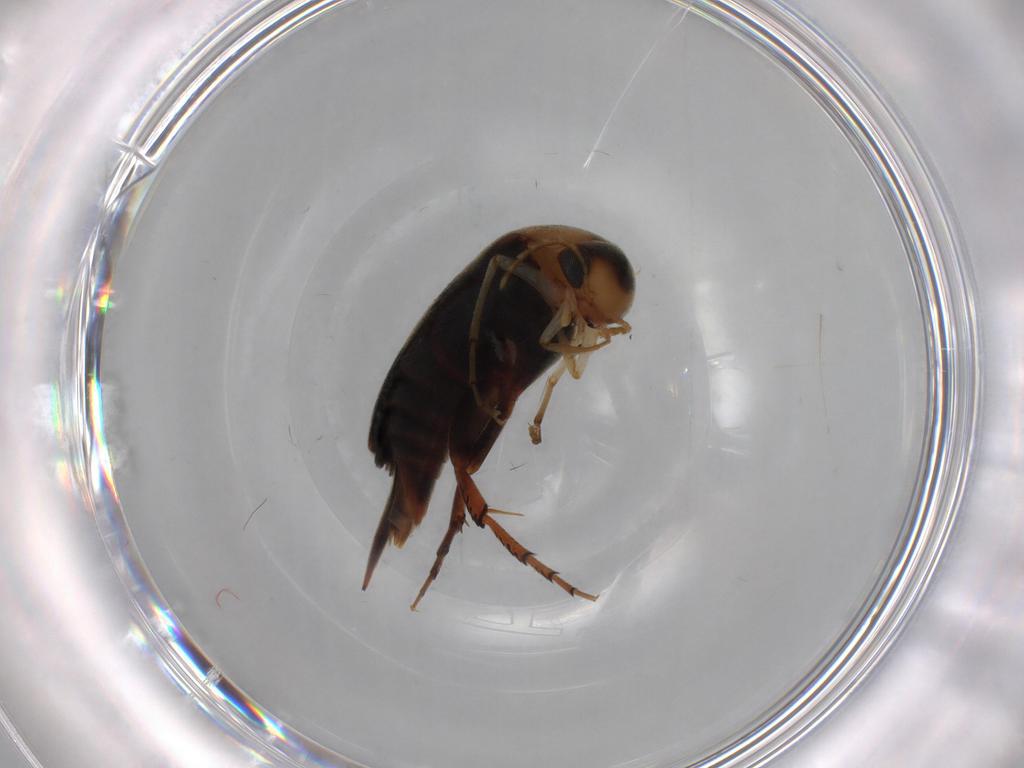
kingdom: Animalia
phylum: Arthropoda
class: Insecta
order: Coleoptera
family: Mordellidae
